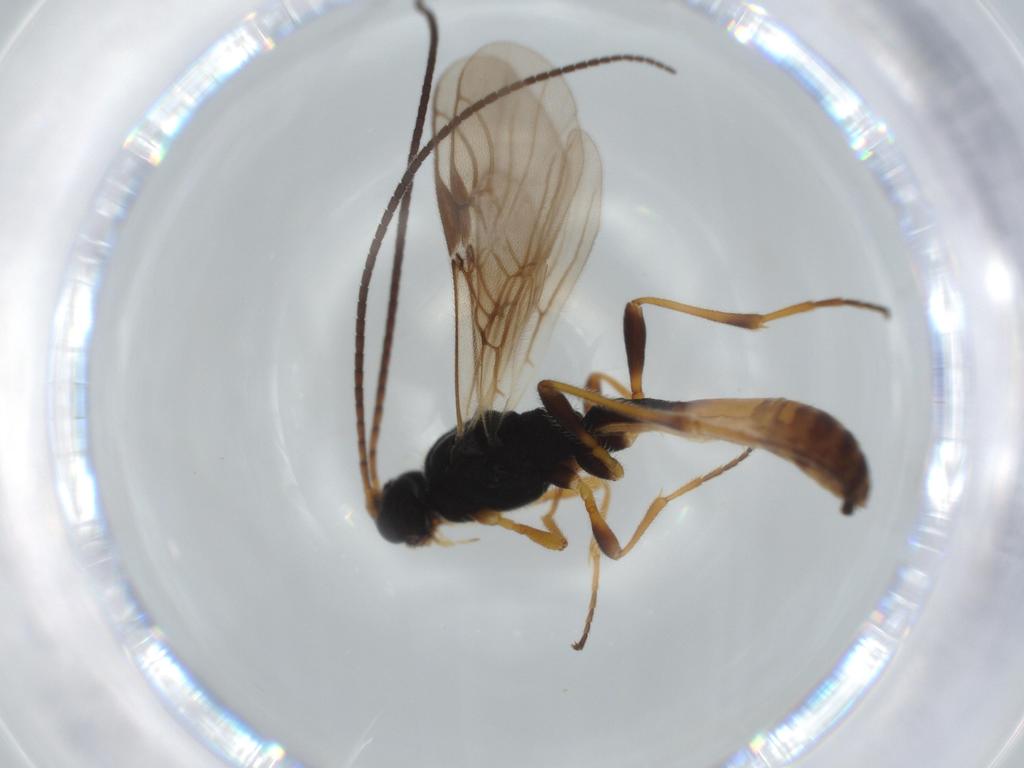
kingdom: Animalia
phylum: Arthropoda
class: Insecta
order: Hymenoptera
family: Braconidae
